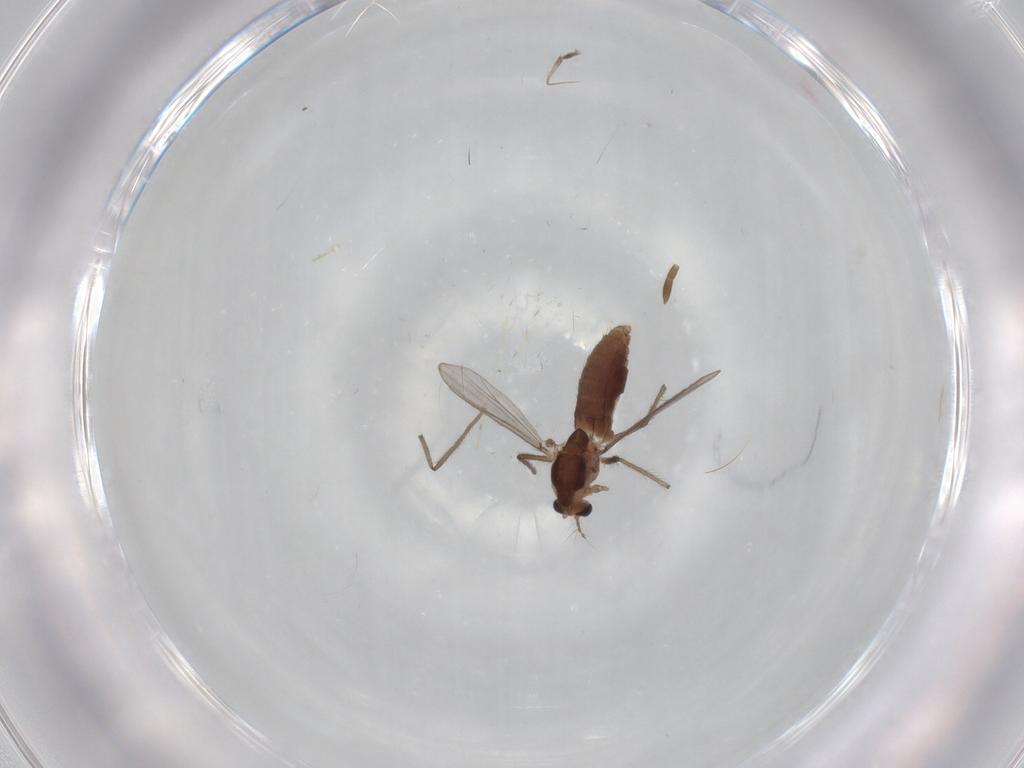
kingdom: Animalia
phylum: Arthropoda
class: Insecta
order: Diptera
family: Chironomidae
